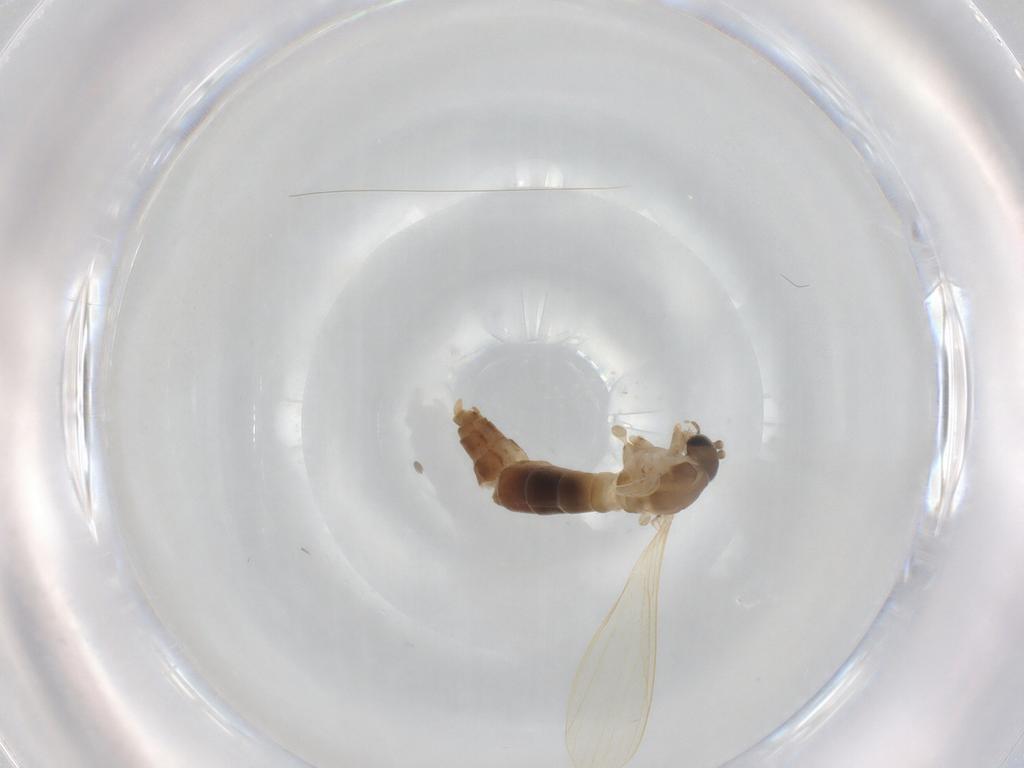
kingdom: Animalia
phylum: Arthropoda
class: Insecta
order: Diptera
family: Psychodidae
